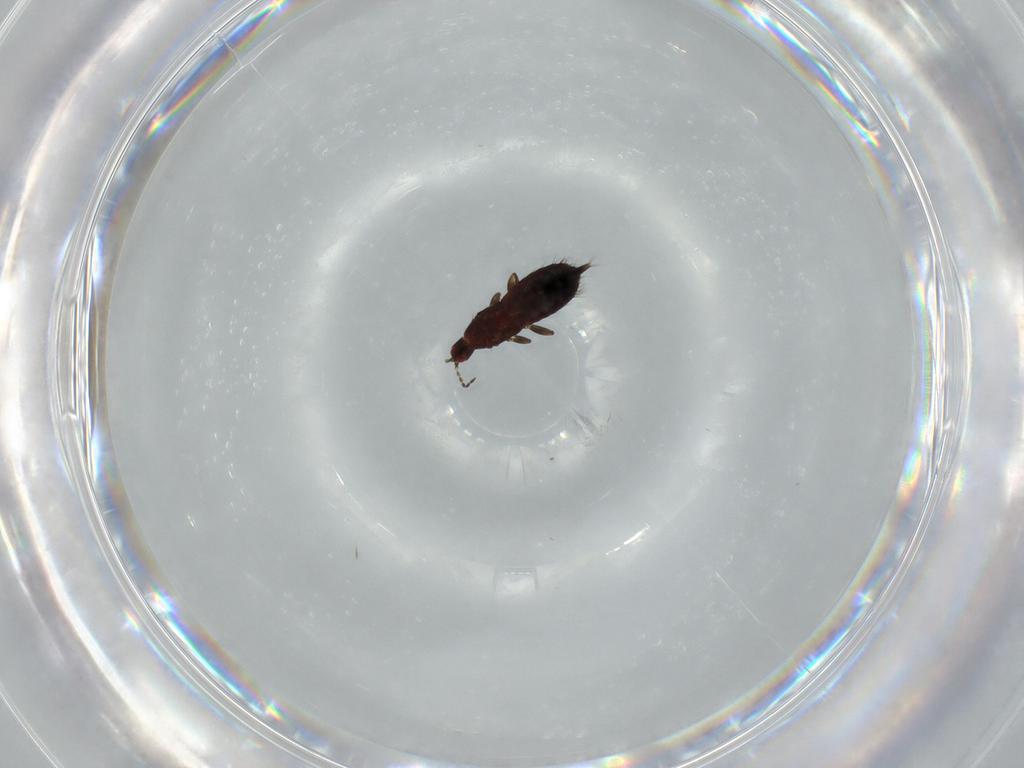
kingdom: Animalia
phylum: Arthropoda
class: Insecta
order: Thysanoptera
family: Phlaeothripidae
